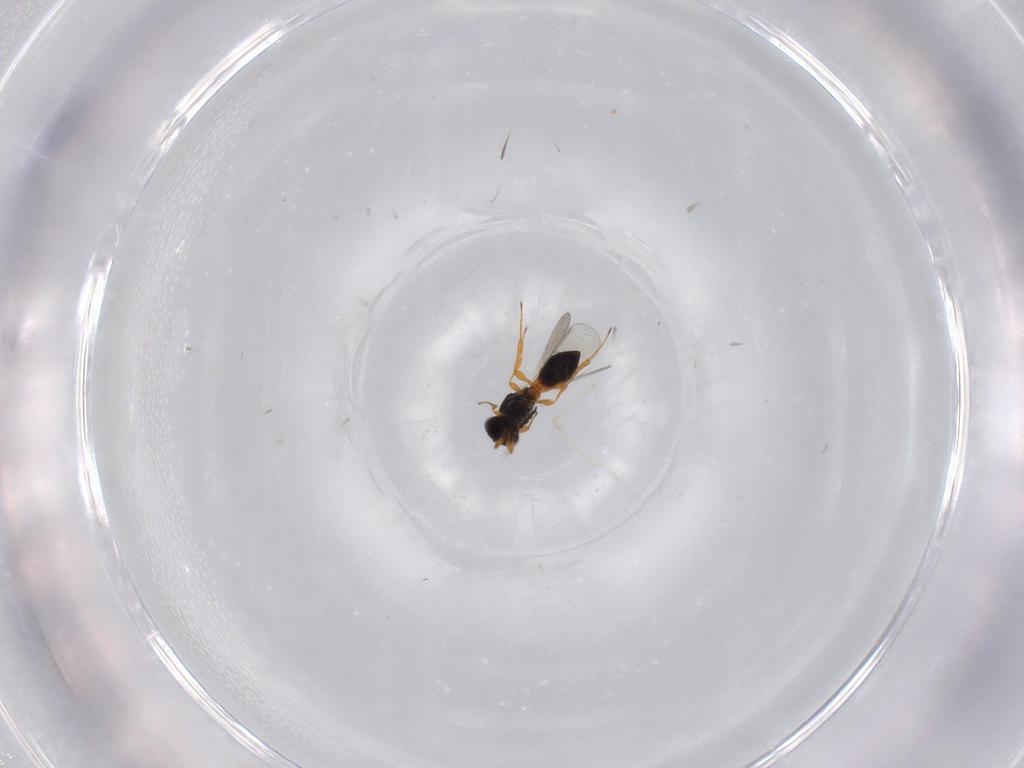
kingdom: Animalia
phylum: Arthropoda
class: Insecta
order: Hymenoptera
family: Platygastridae
